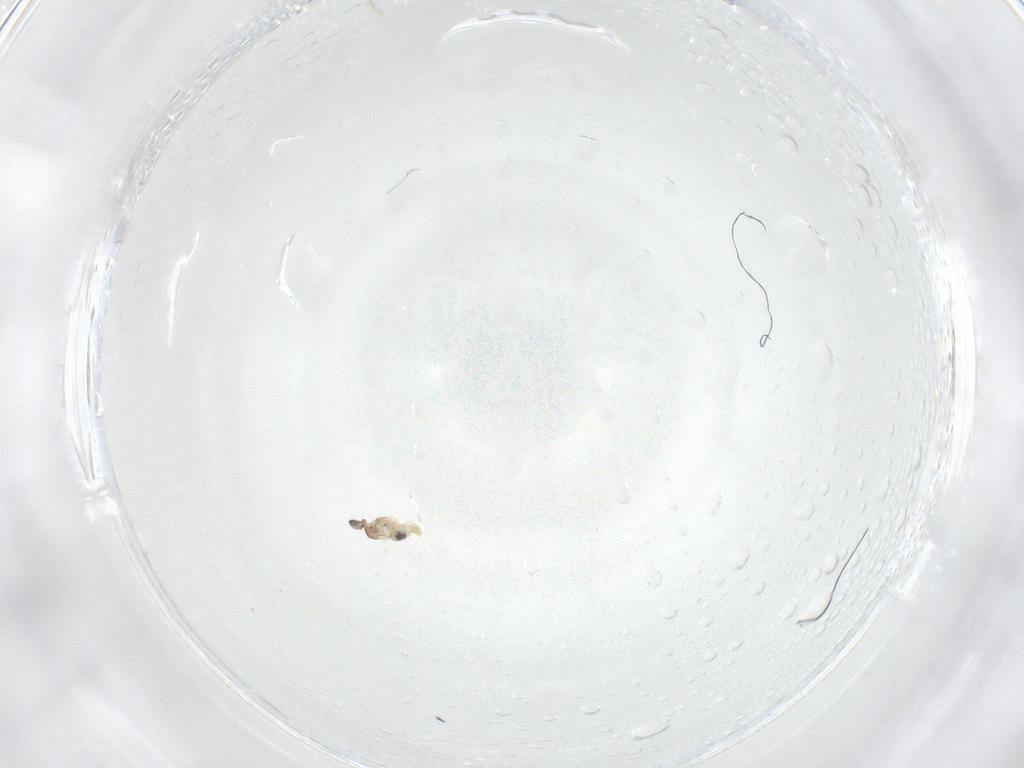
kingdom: Animalia
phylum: Arthropoda
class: Insecta
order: Diptera
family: Cecidomyiidae
